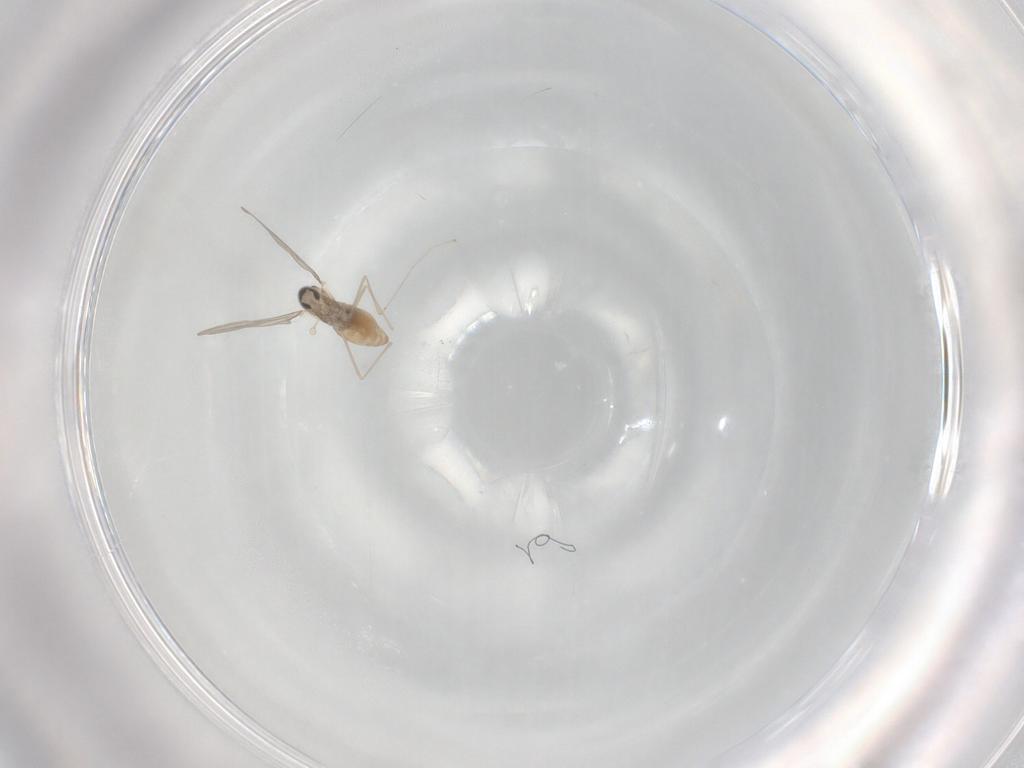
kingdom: Animalia
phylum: Arthropoda
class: Insecta
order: Diptera
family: Cecidomyiidae
